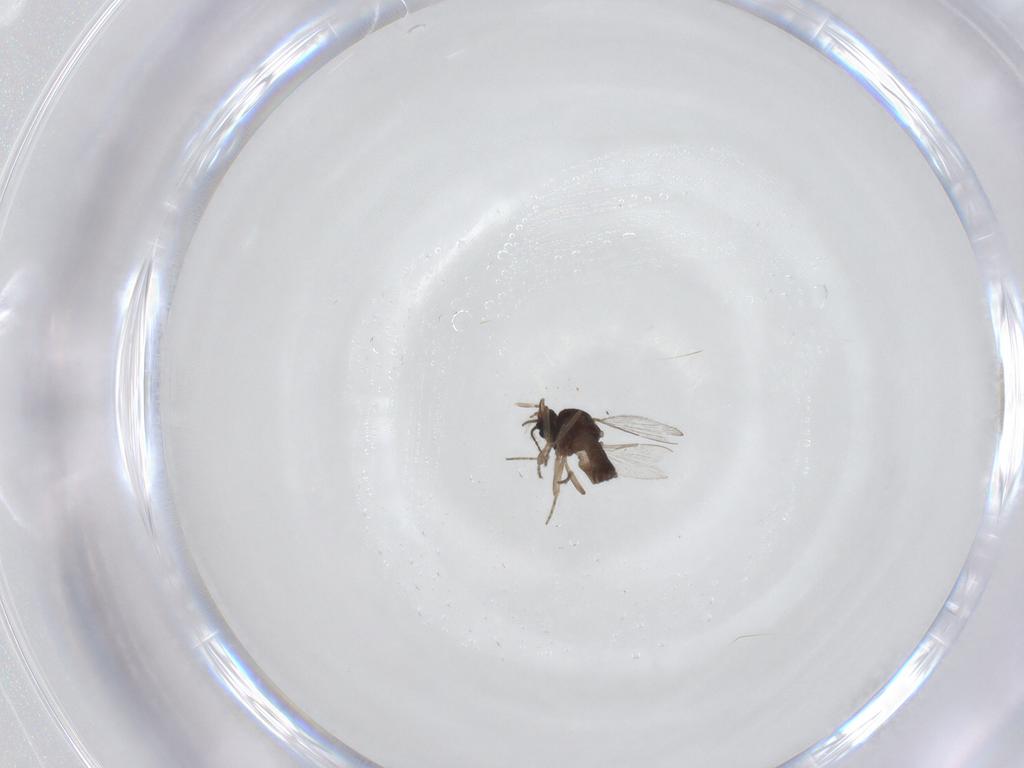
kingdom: Animalia
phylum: Arthropoda
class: Insecta
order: Diptera
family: Ceratopogonidae
